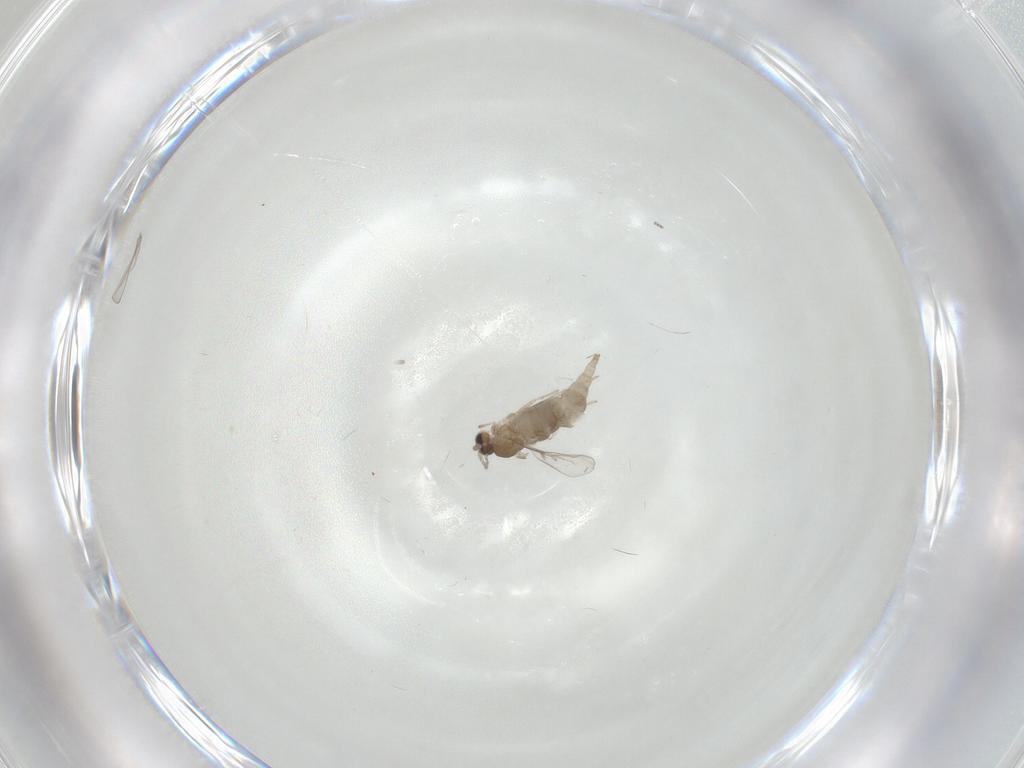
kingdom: Animalia
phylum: Arthropoda
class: Insecta
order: Diptera
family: Cecidomyiidae
